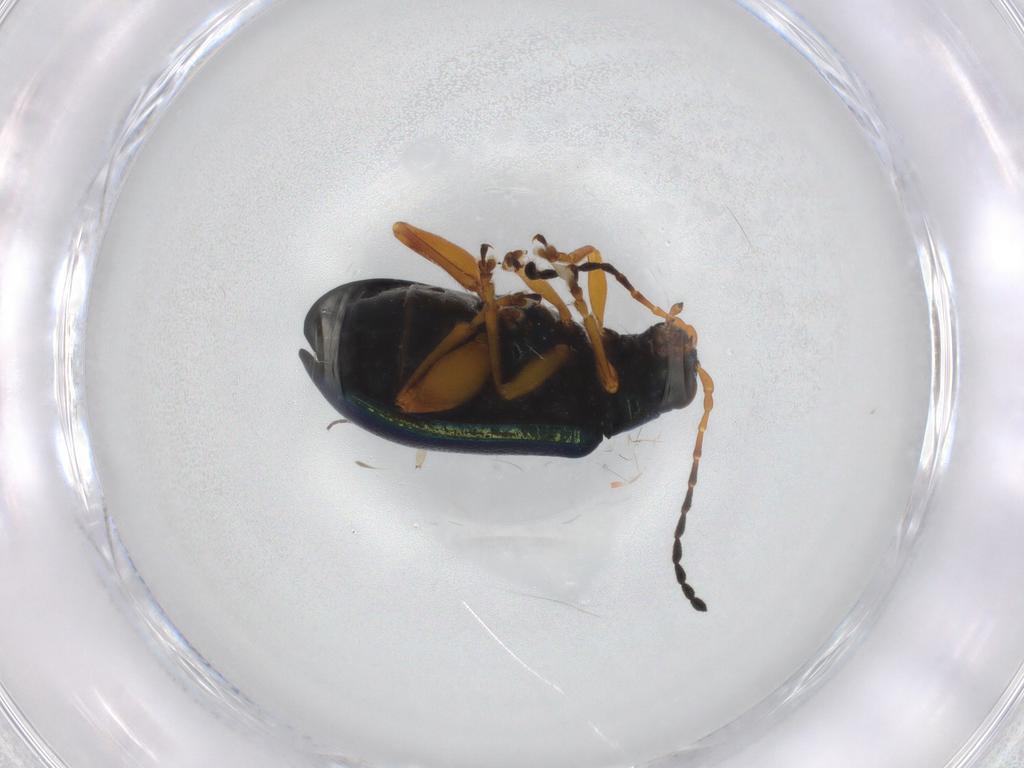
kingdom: Animalia
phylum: Arthropoda
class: Insecta
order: Coleoptera
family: Chrysomelidae
